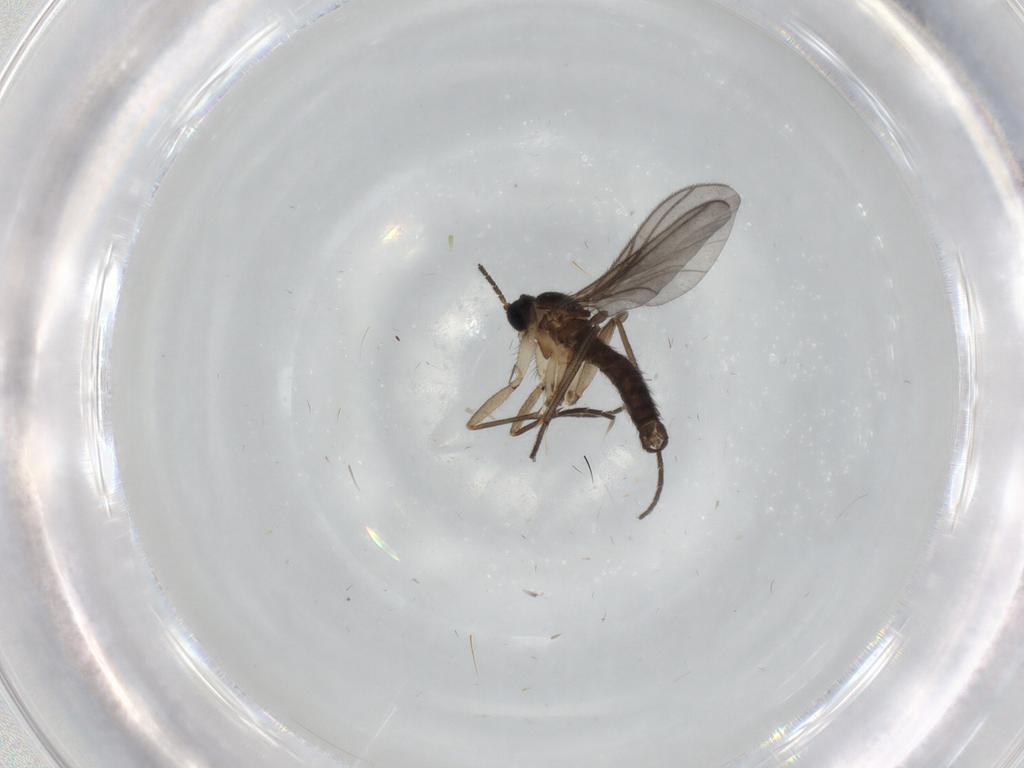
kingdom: Animalia
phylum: Arthropoda
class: Insecta
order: Diptera
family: Sciaridae
